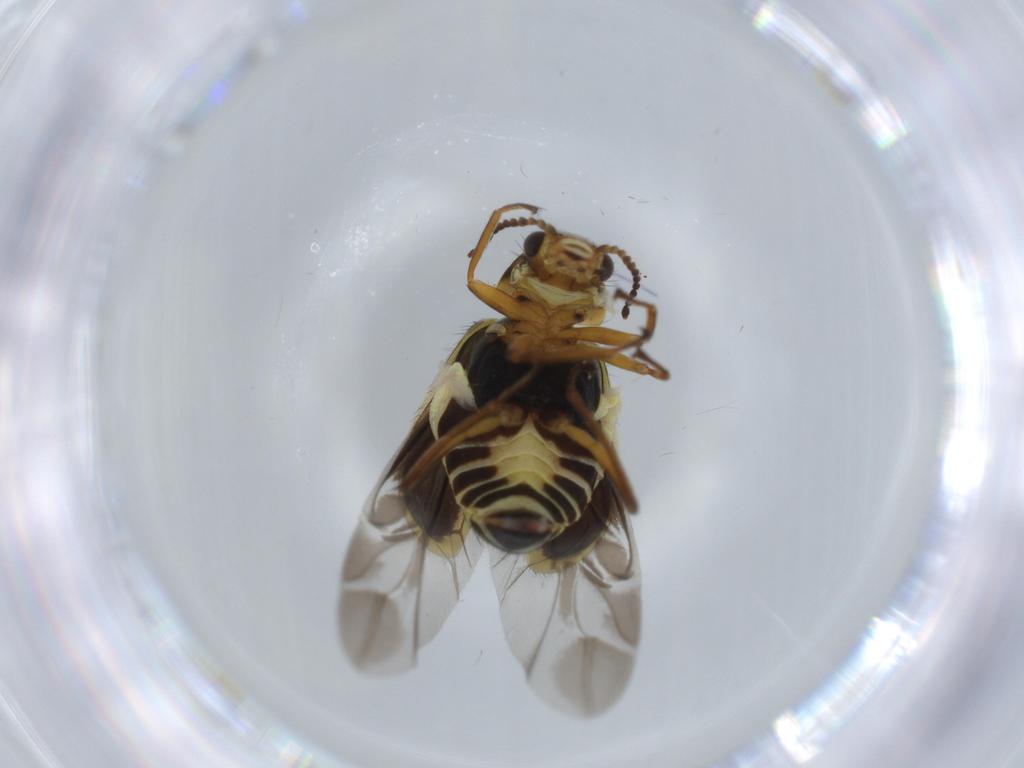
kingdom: Animalia
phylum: Arthropoda
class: Insecta
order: Coleoptera
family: Melyridae
